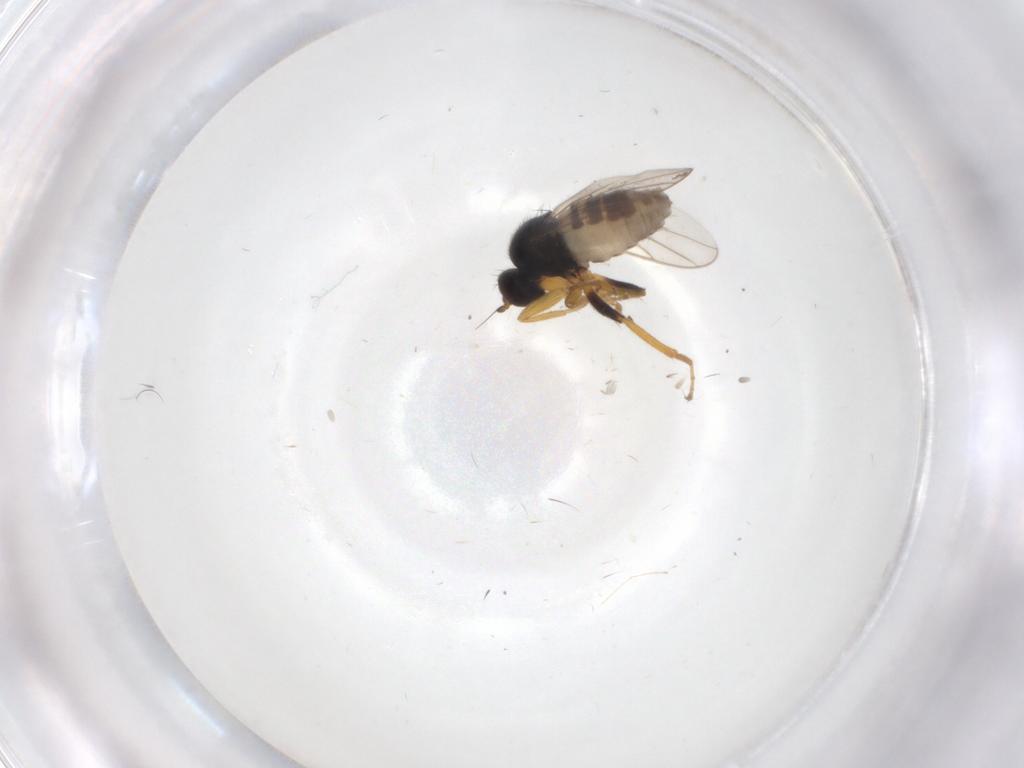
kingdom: Animalia
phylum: Arthropoda
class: Insecta
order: Diptera
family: Hybotidae
